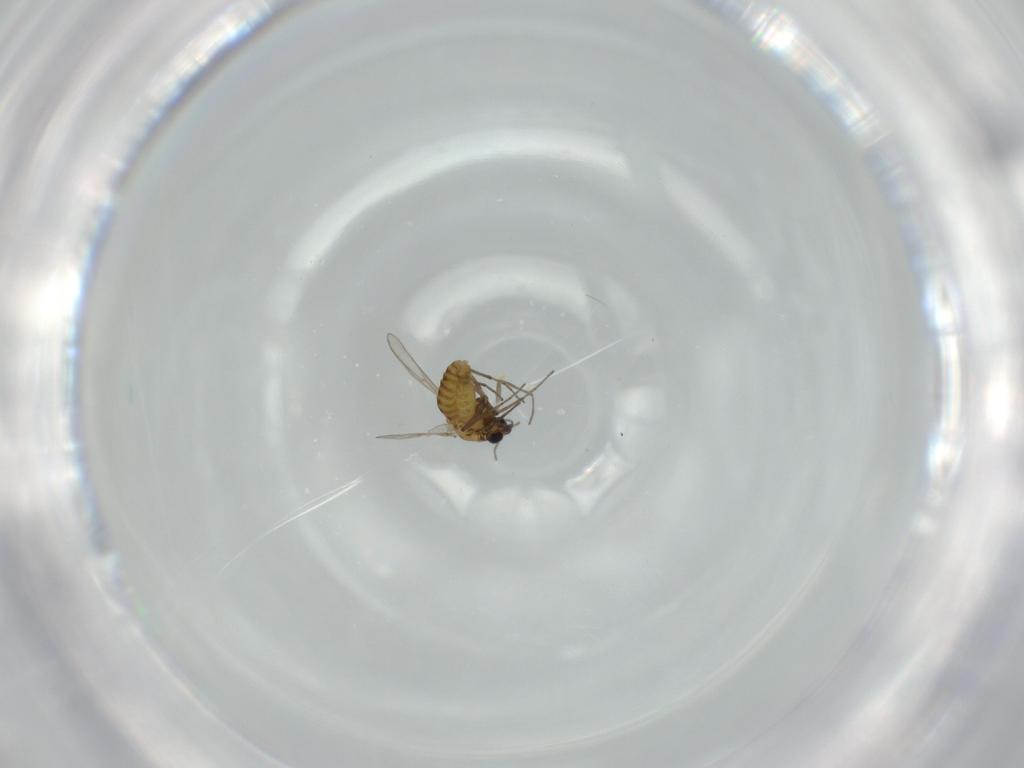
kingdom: Animalia
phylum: Arthropoda
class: Insecta
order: Diptera
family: Chironomidae
